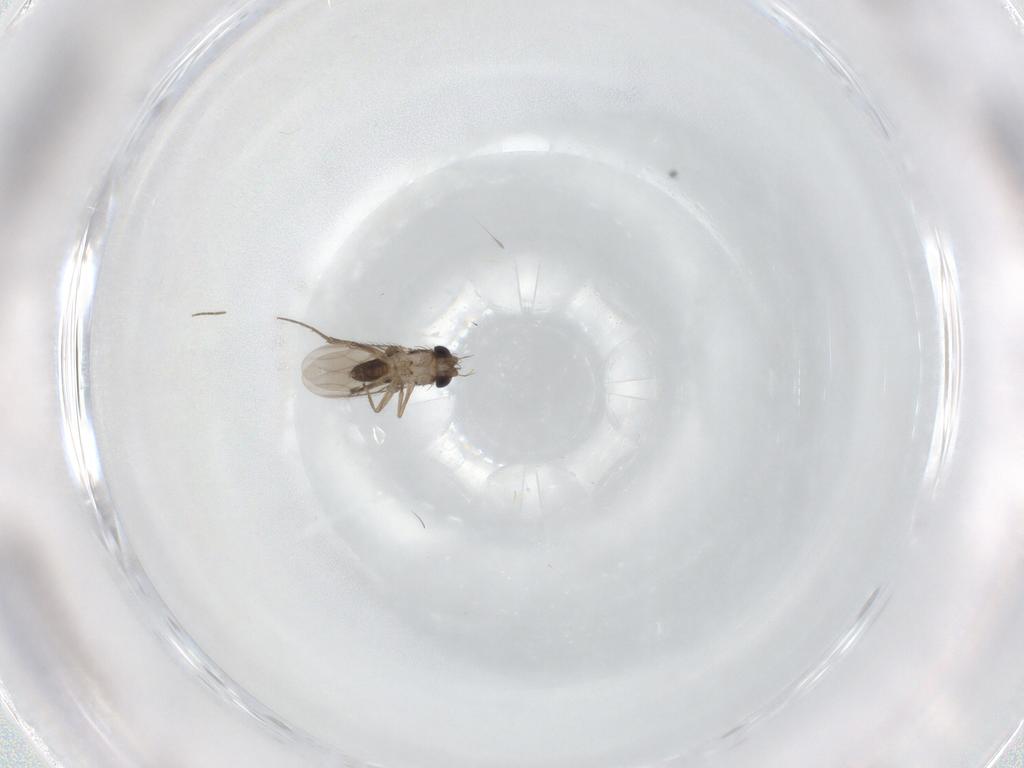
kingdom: Animalia
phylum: Arthropoda
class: Insecta
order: Diptera
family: Phoridae
